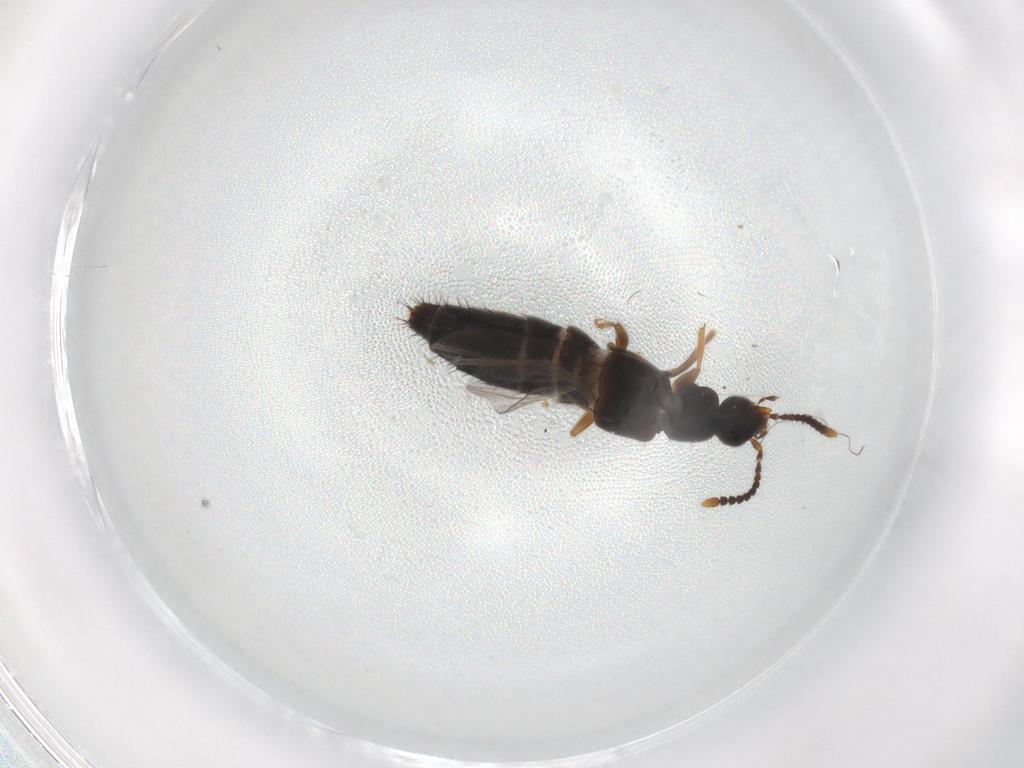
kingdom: Animalia
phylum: Arthropoda
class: Insecta
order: Coleoptera
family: Staphylinidae
